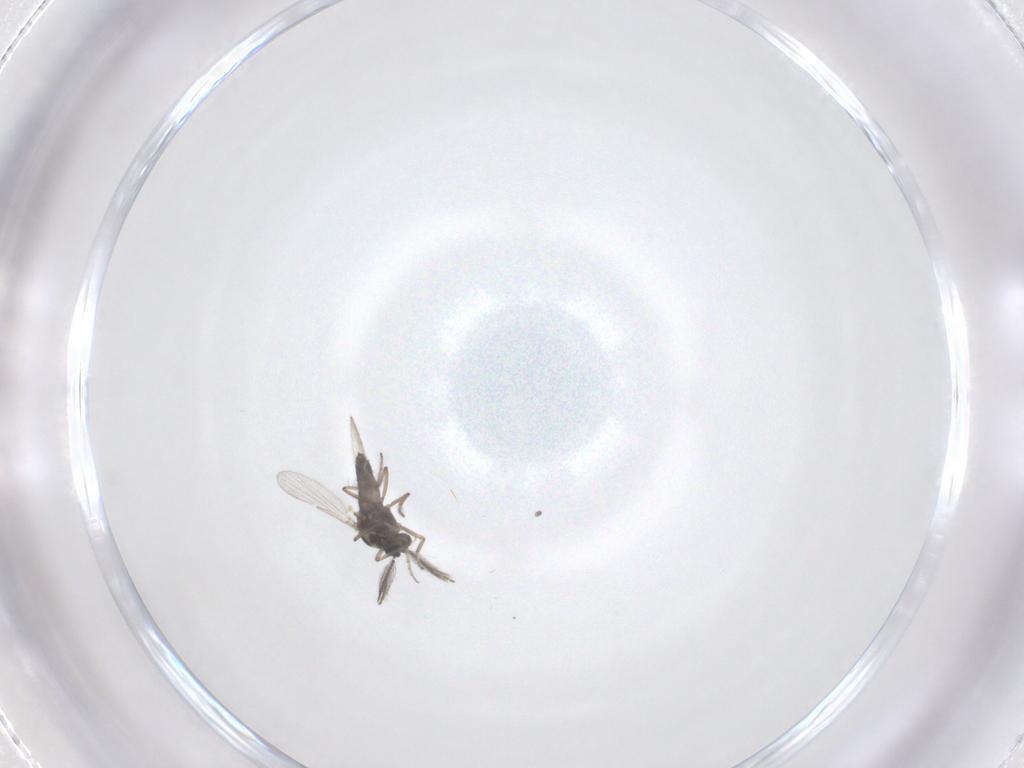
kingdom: Animalia
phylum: Arthropoda
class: Insecta
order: Diptera
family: Ceratopogonidae
